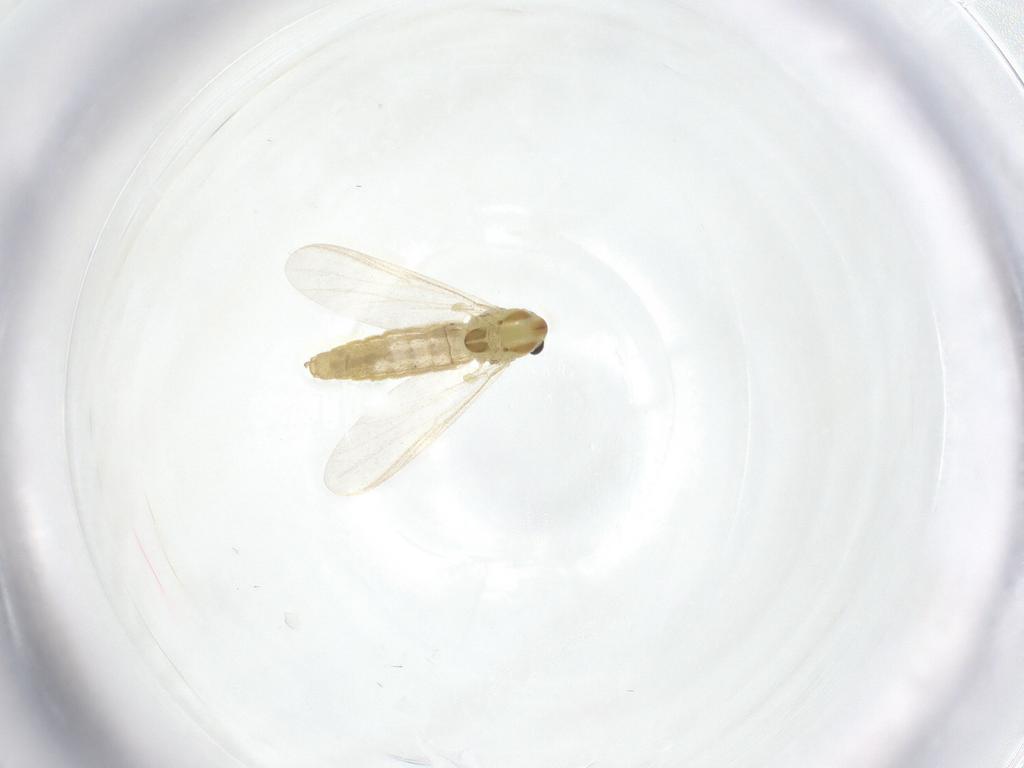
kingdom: Animalia
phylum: Arthropoda
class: Insecta
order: Diptera
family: Chironomidae
